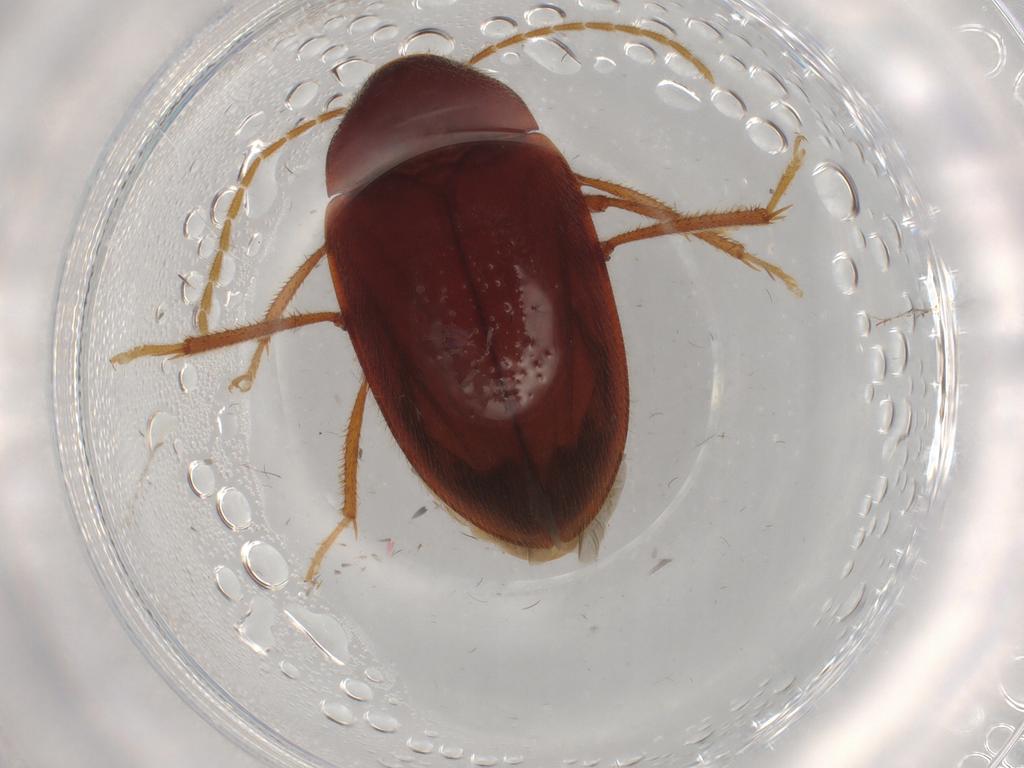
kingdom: Animalia
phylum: Arthropoda
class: Insecta
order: Coleoptera
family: Ptilodactylidae
